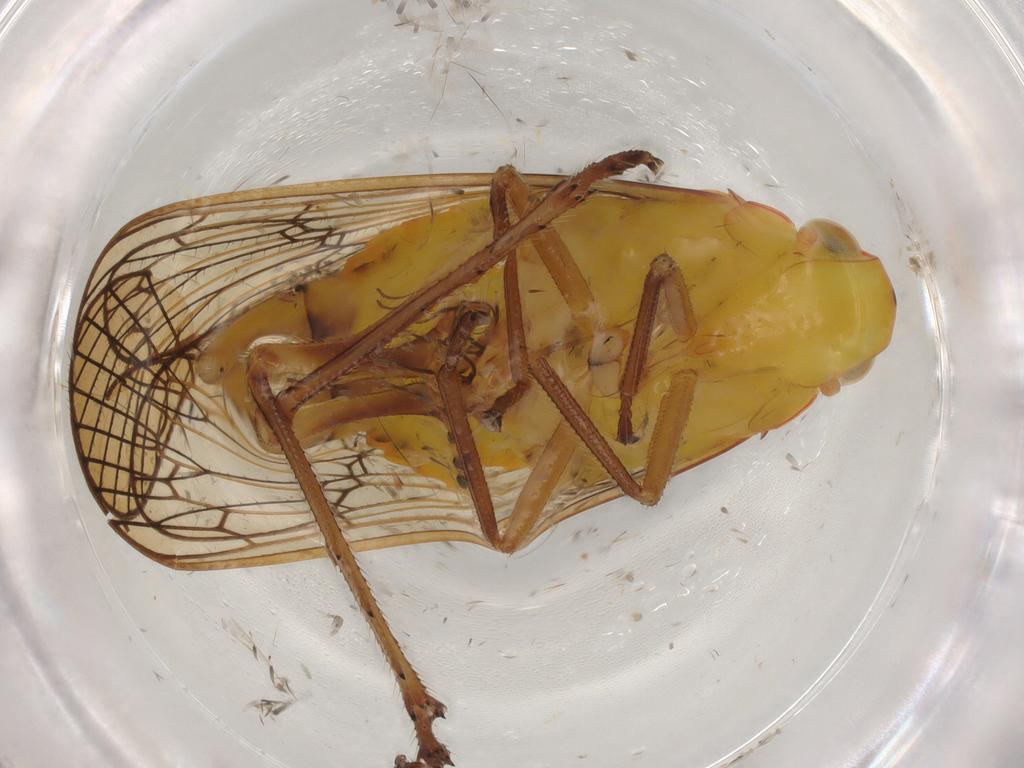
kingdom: Animalia
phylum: Arthropoda
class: Insecta
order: Hemiptera
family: Tropiduchidae
